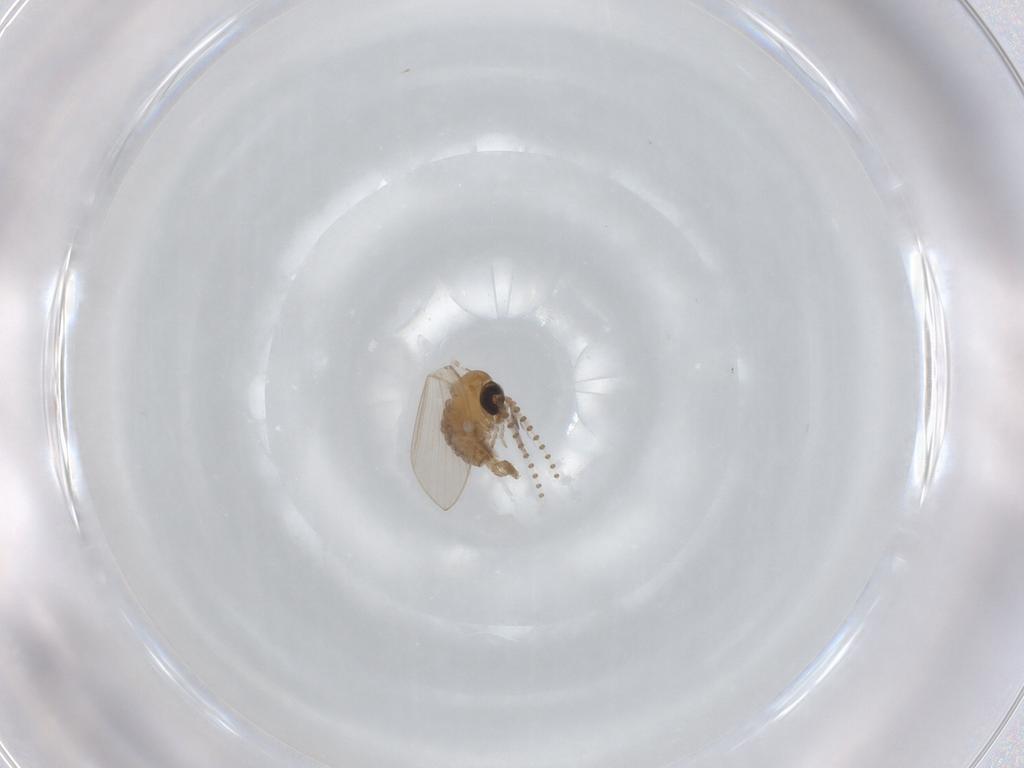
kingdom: Animalia
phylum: Arthropoda
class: Insecta
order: Diptera
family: Psychodidae
